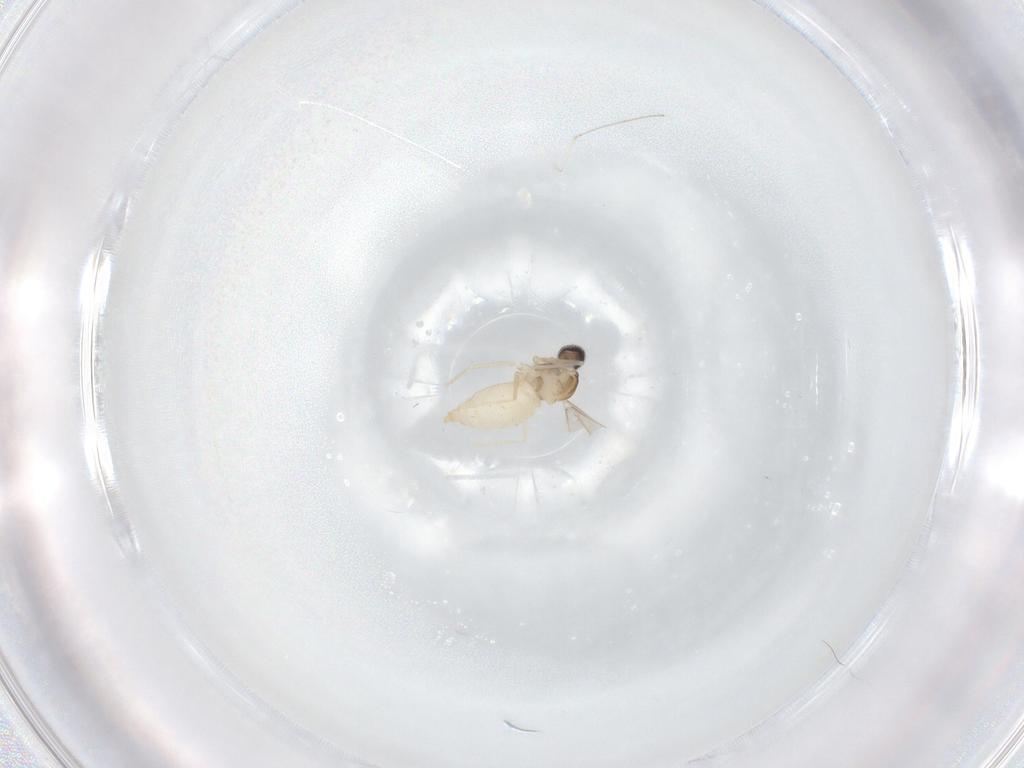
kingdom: Animalia
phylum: Arthropoda
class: Insecta
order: Diptera
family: Cecidomyiidae
